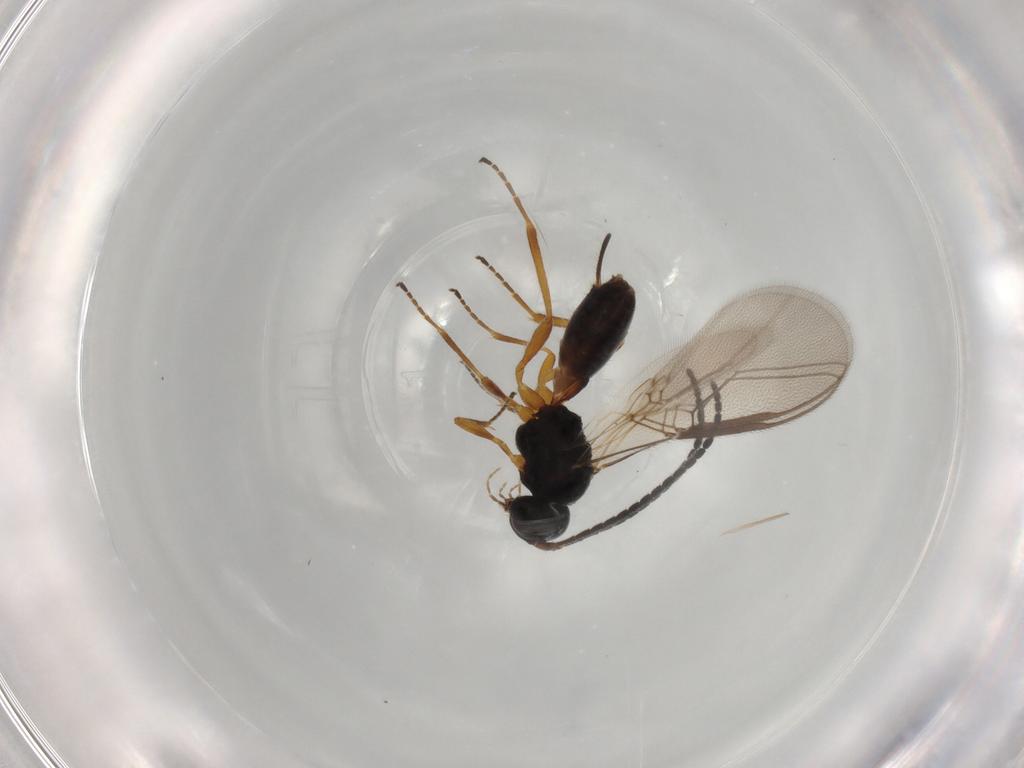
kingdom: Animalia
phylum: Arthropoda
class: Insecta
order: Hymenoptera
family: Braconidae
